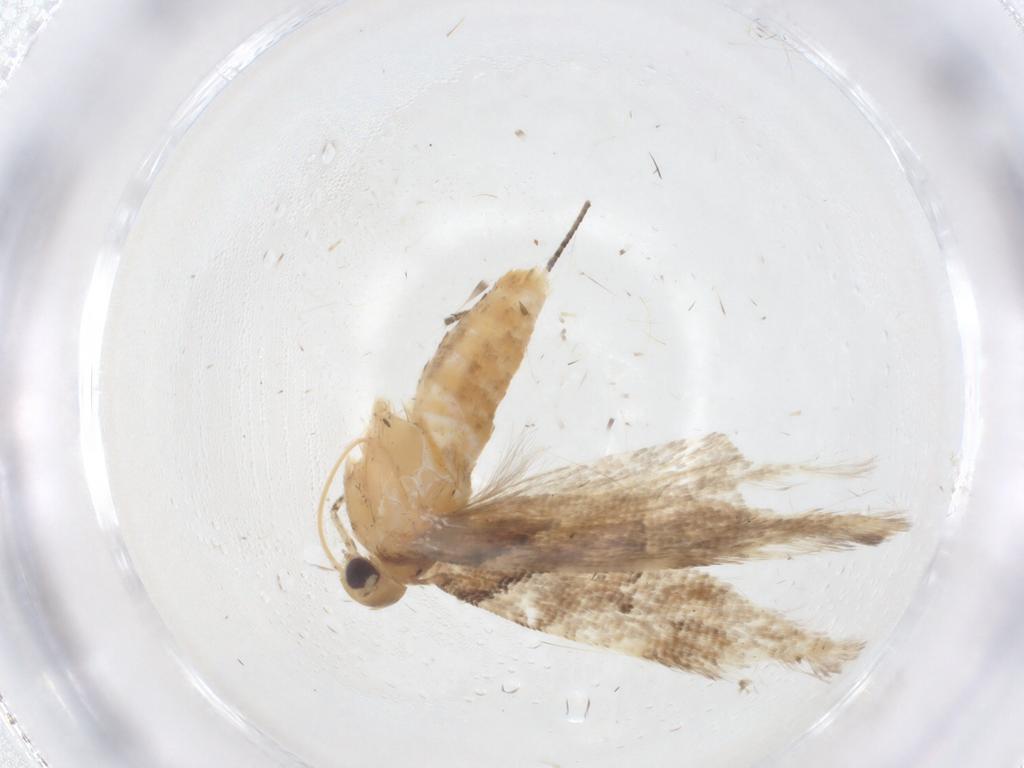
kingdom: Animalia
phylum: Arthropoda
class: Insecta
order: Lepidoptera
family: Gelechiidae
